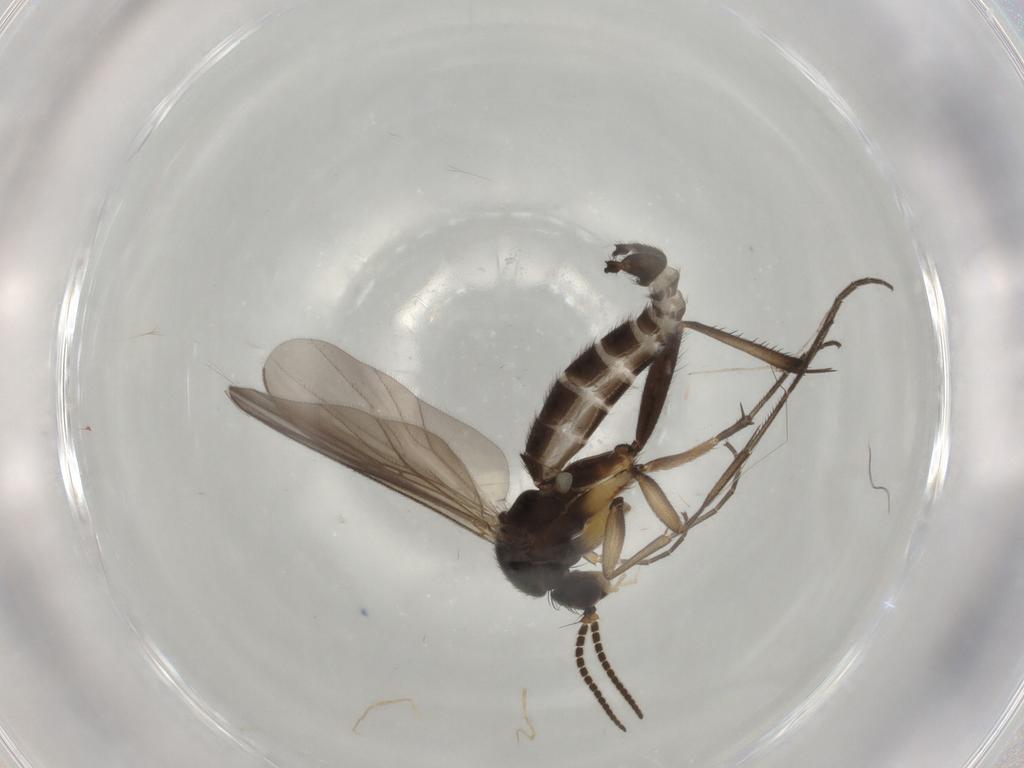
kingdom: Animalia
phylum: Arthropoda
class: Insecta
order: Diptera
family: Mycetophilidae
